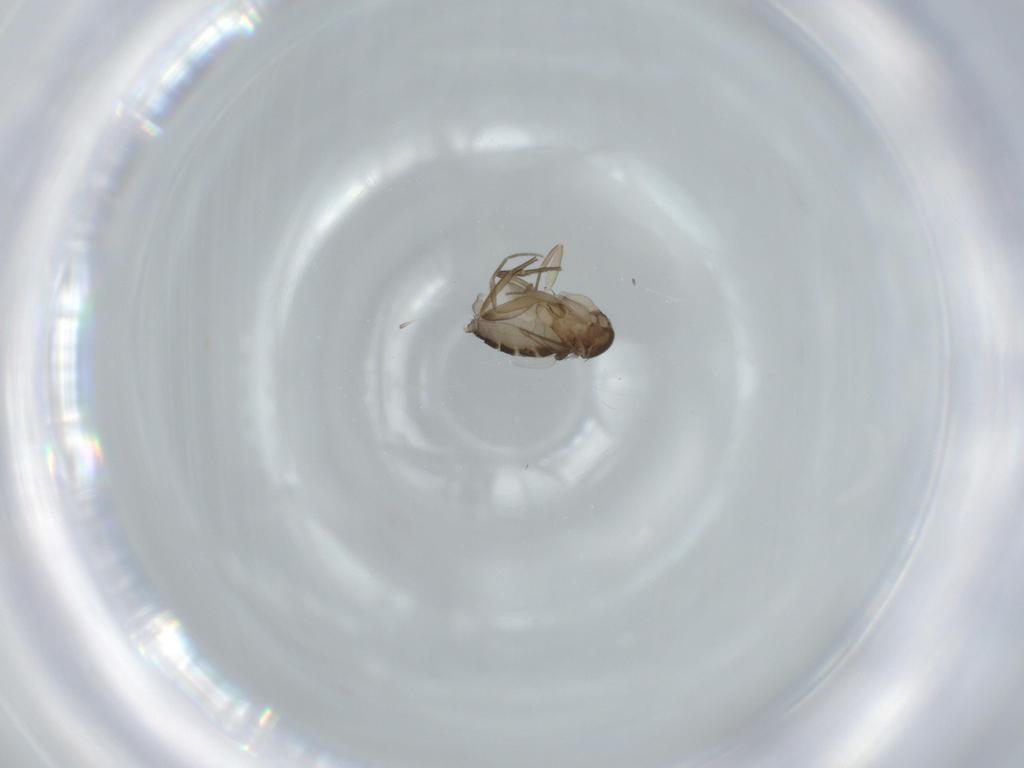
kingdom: Animalia
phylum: Arthropoda
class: Insecta
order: Diptera
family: Phoridae
